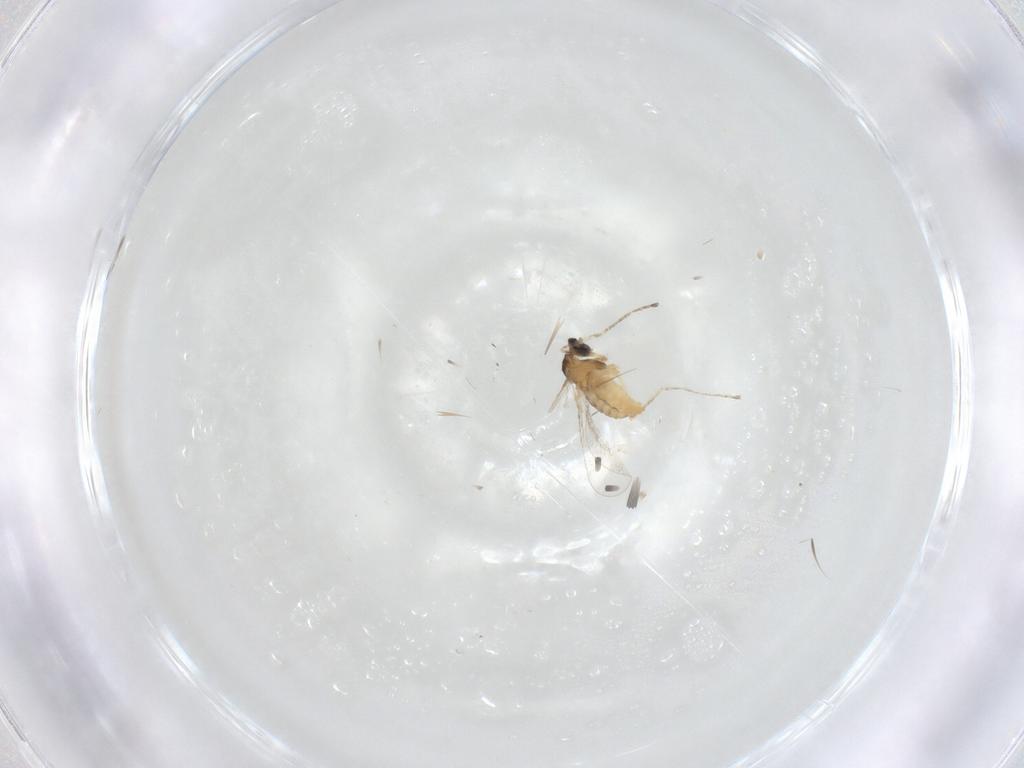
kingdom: Animalia
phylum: Arthropoda
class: Insecta
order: Diptera
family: Cecidomyiidae
